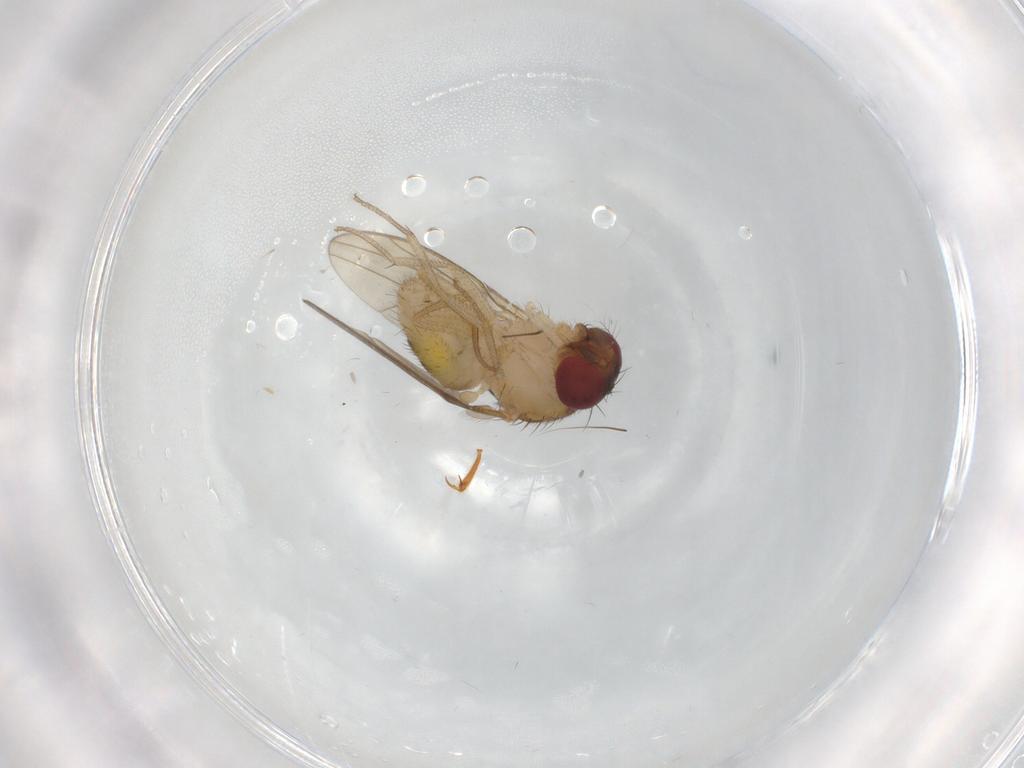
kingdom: Animalia
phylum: Arthropoda
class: Insecta
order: Diptera
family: Drosophilidae
